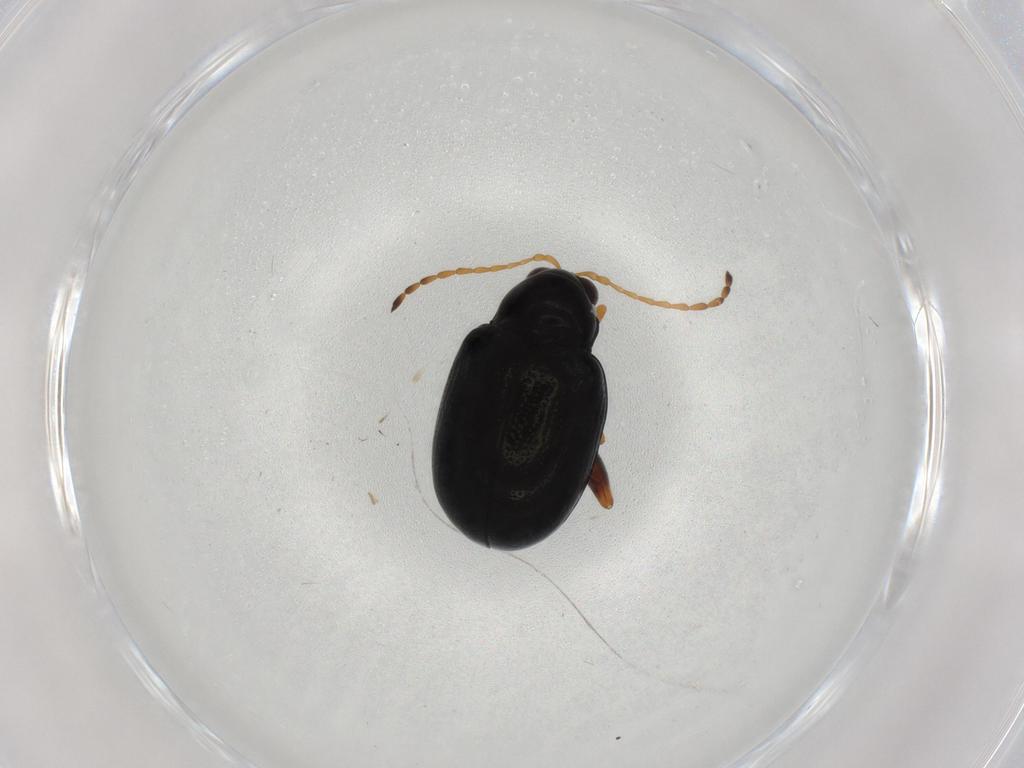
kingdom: Animalia
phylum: Arthropoda
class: Insecta
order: Coleoptera
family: Chrysomelidae
